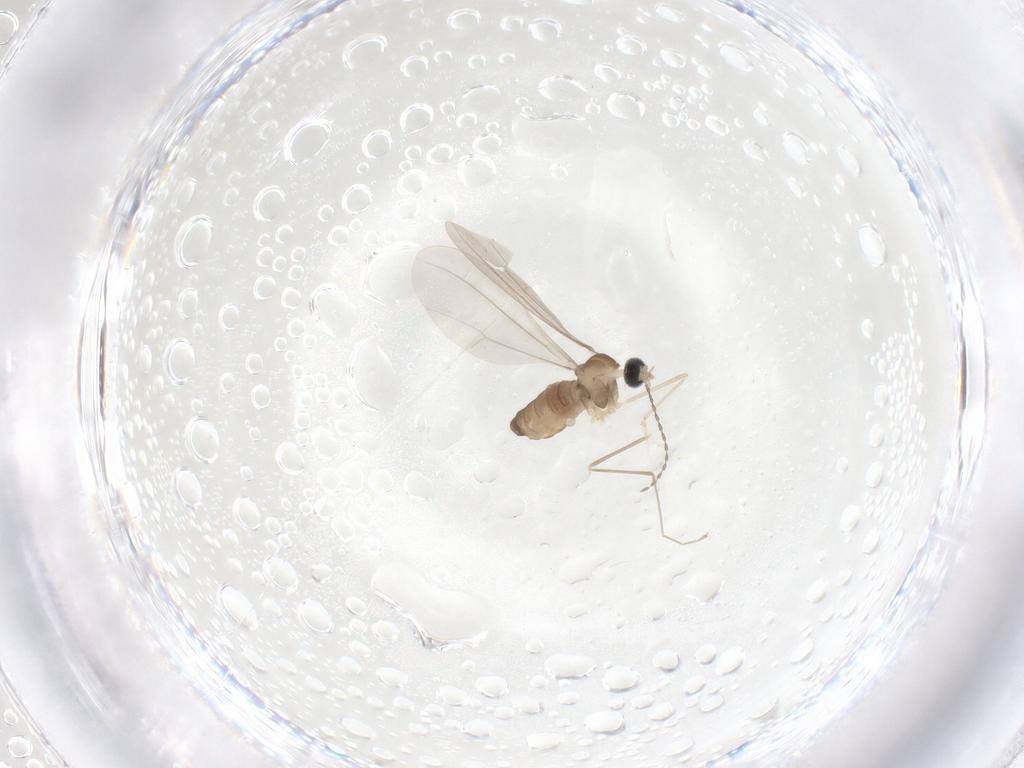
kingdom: Animalia
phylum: Arthropoda
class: Insecta
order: Diptera
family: Cecidomyiidae
